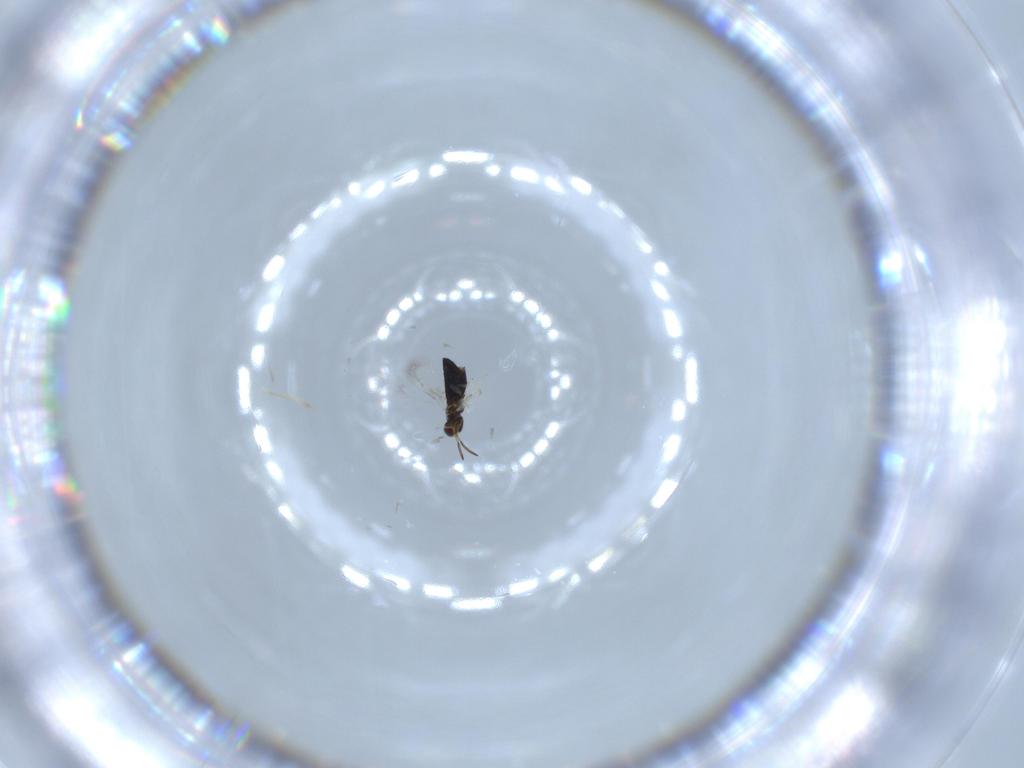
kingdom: Animalia
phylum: Arthropoda
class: Insecta
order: Hymenoptera
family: Signiphoridae
